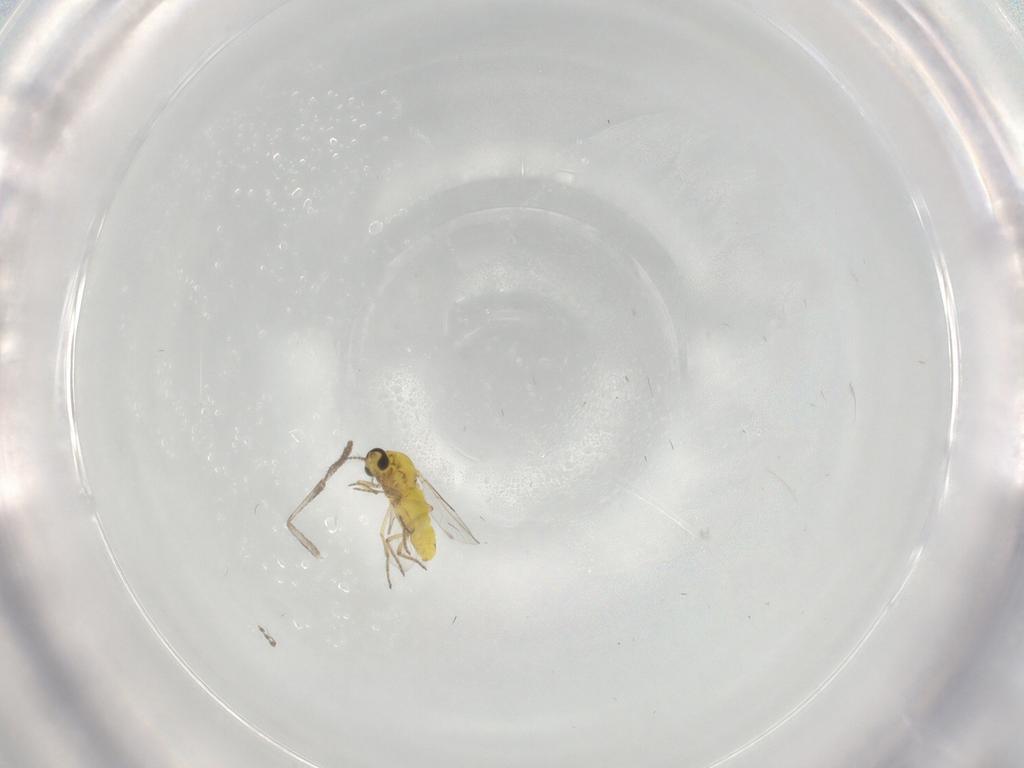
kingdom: Animalia
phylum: Arthropoda
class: Insecta
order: Diptera
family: Ceratopogonidae
